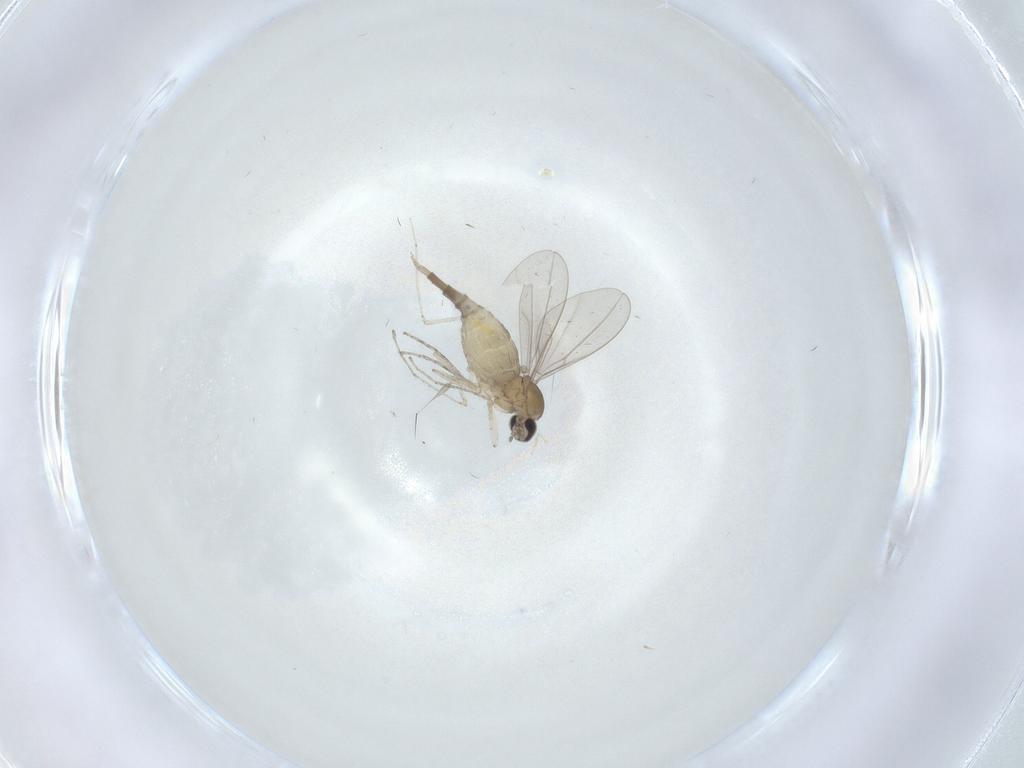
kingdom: Animalia
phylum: Arthropoda
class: Insecta
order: Diptera
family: Cecidomyiidae
